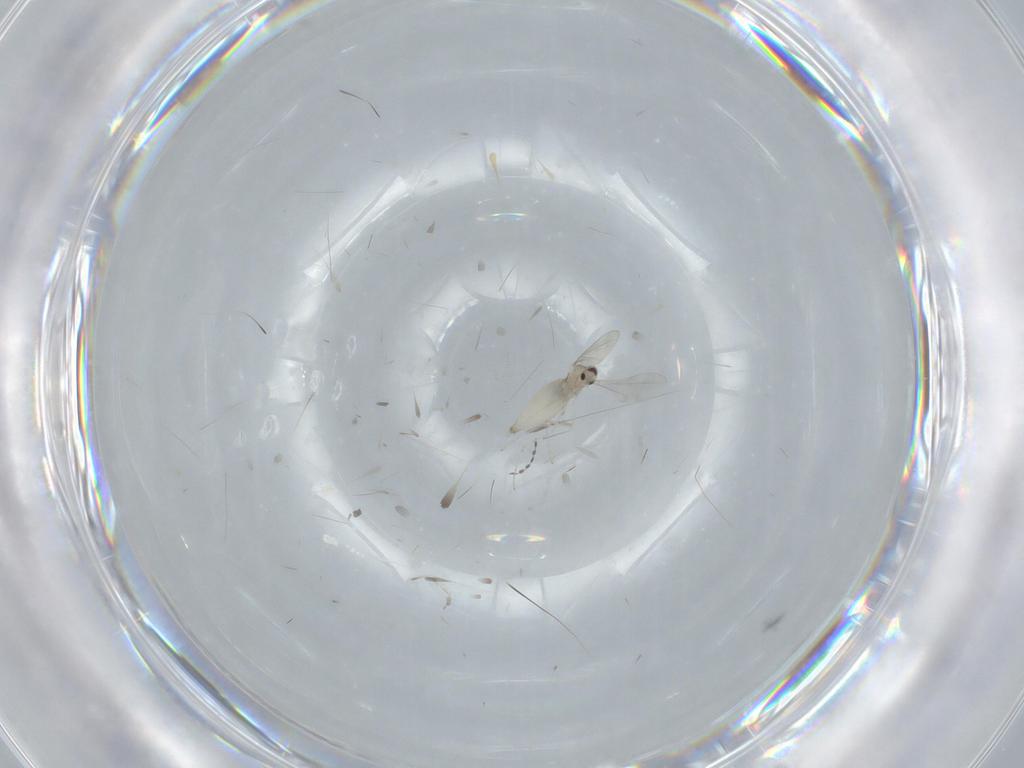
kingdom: Animalia
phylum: Arthropoda
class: Insecta
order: Diptera
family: Cecidomyiidae
